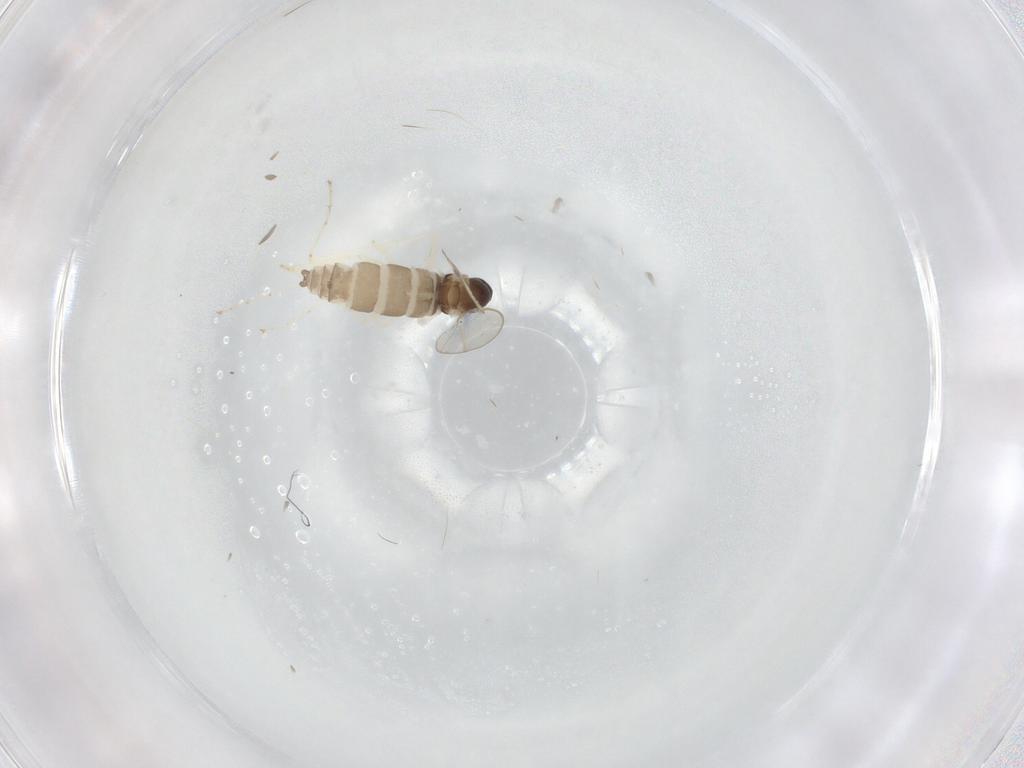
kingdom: Animalia
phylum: Arthropoda
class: Insecta
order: Diptera
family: Cecidomyiidae
